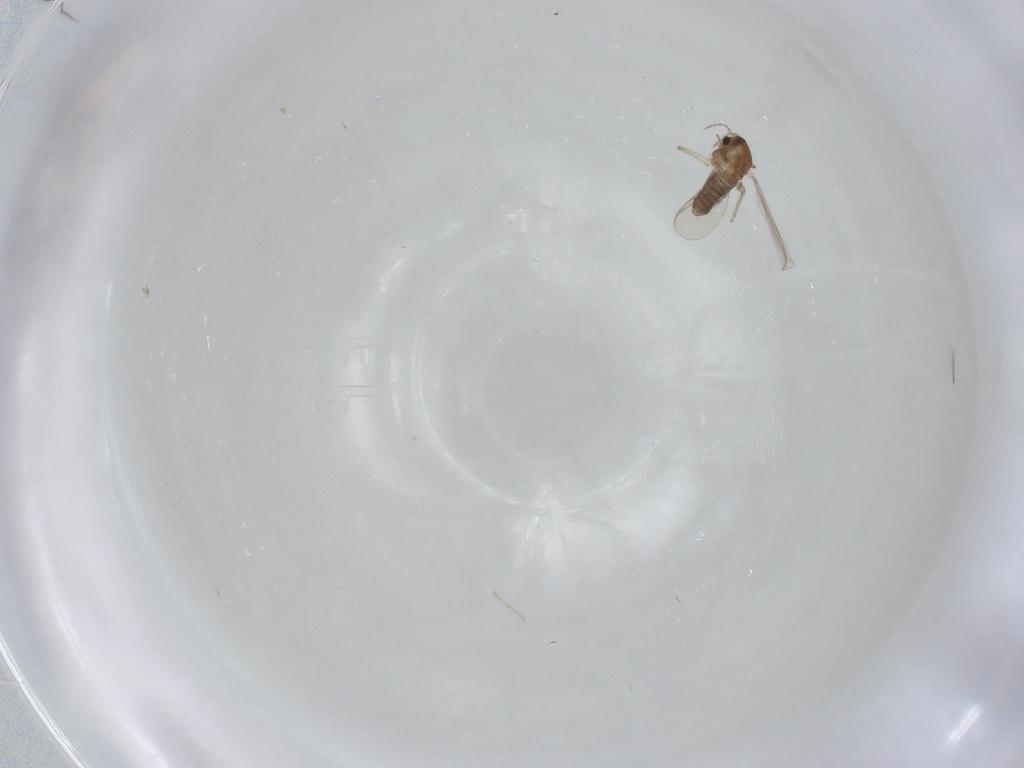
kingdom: Animalia
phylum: Arthropoda
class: Insecta
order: Diptera
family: Chironomidae
